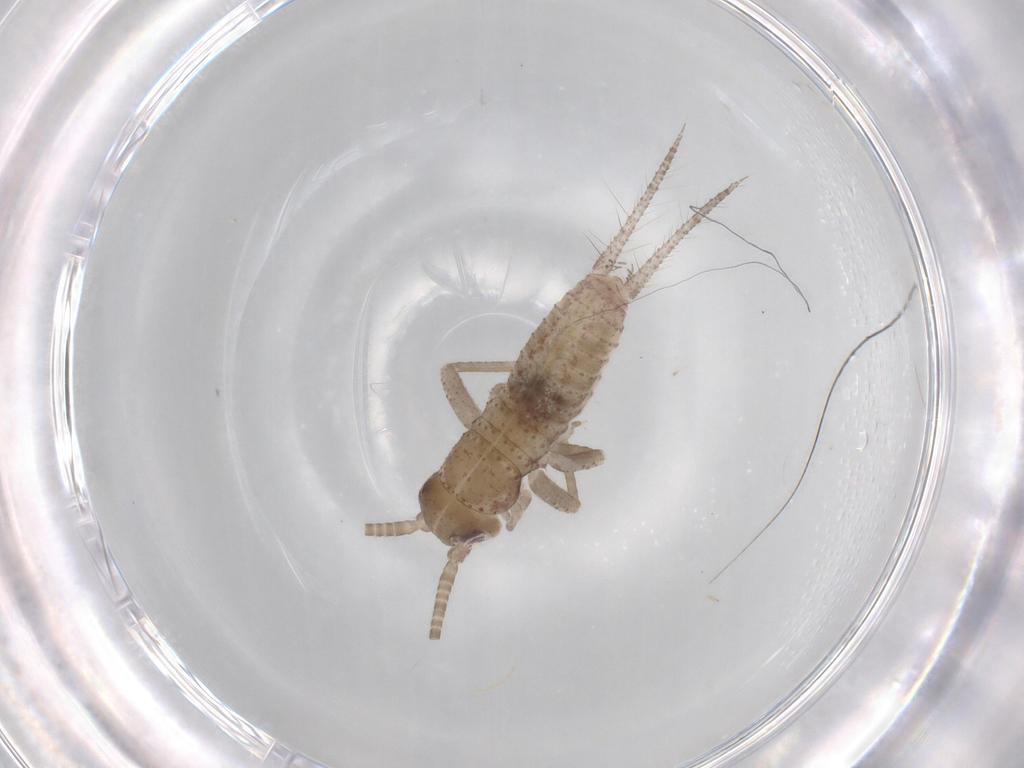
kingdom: Animalia
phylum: Arthropoda
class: Insecta
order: Orthoptera
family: Gryllidae
